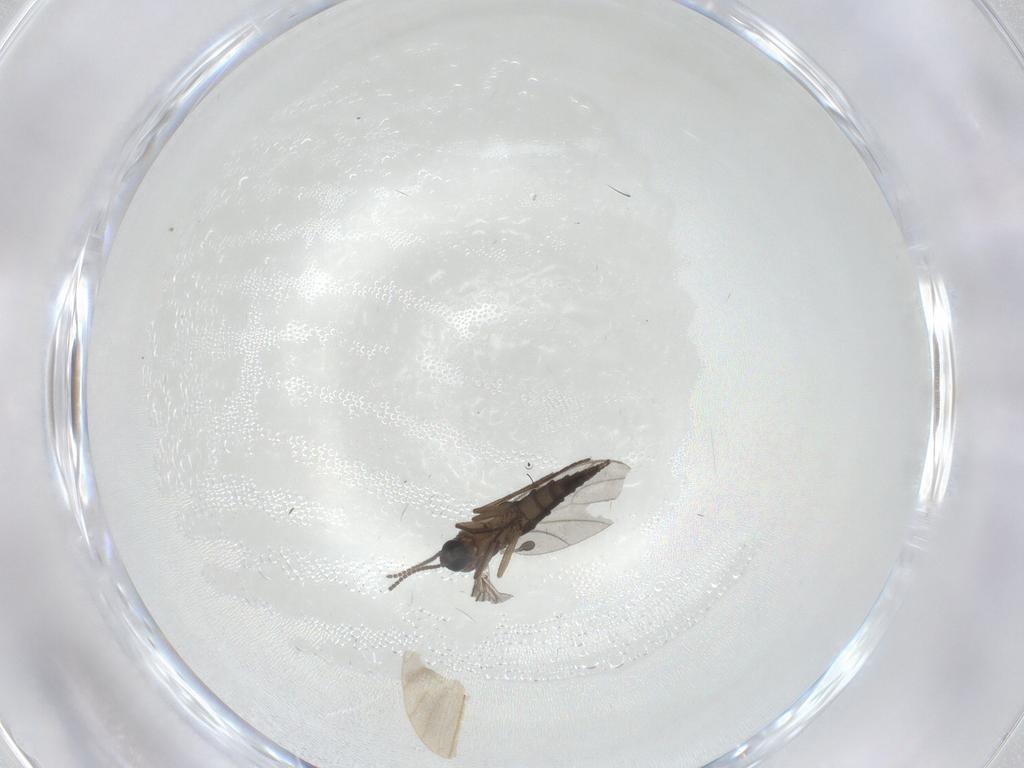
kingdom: Animalia
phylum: Arthropoda
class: Insecta
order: Diptera
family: Sciaridae
